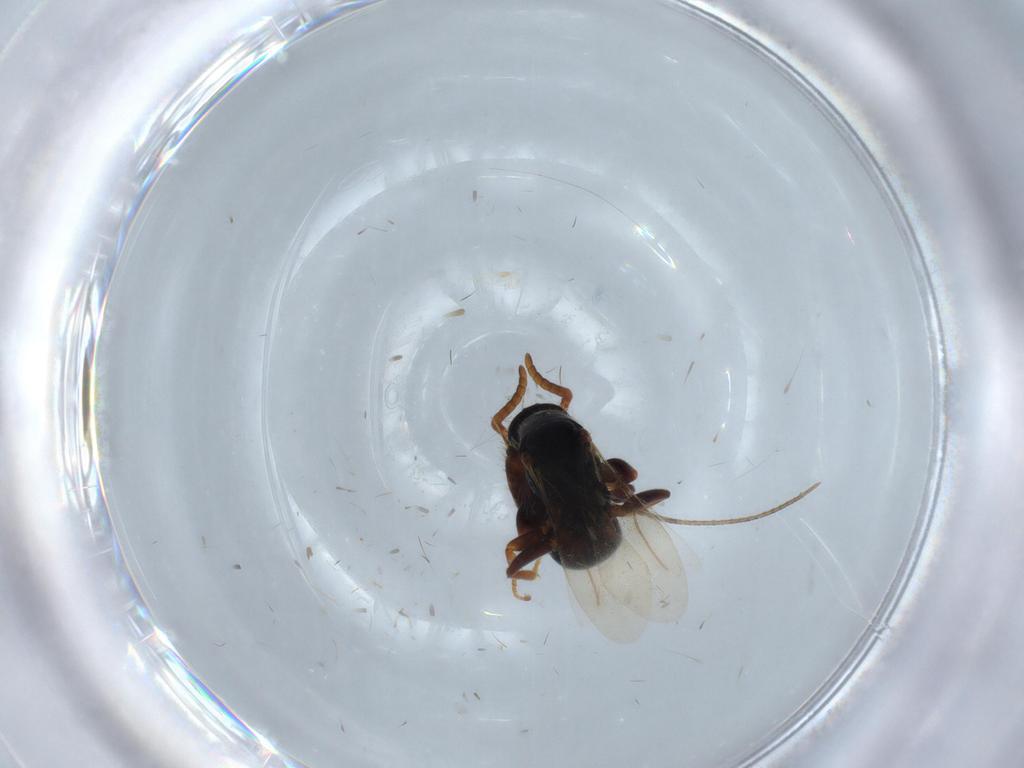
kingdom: Animalia
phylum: Arthropoda
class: Insecta
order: Hymenoptera
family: Bethylidae
